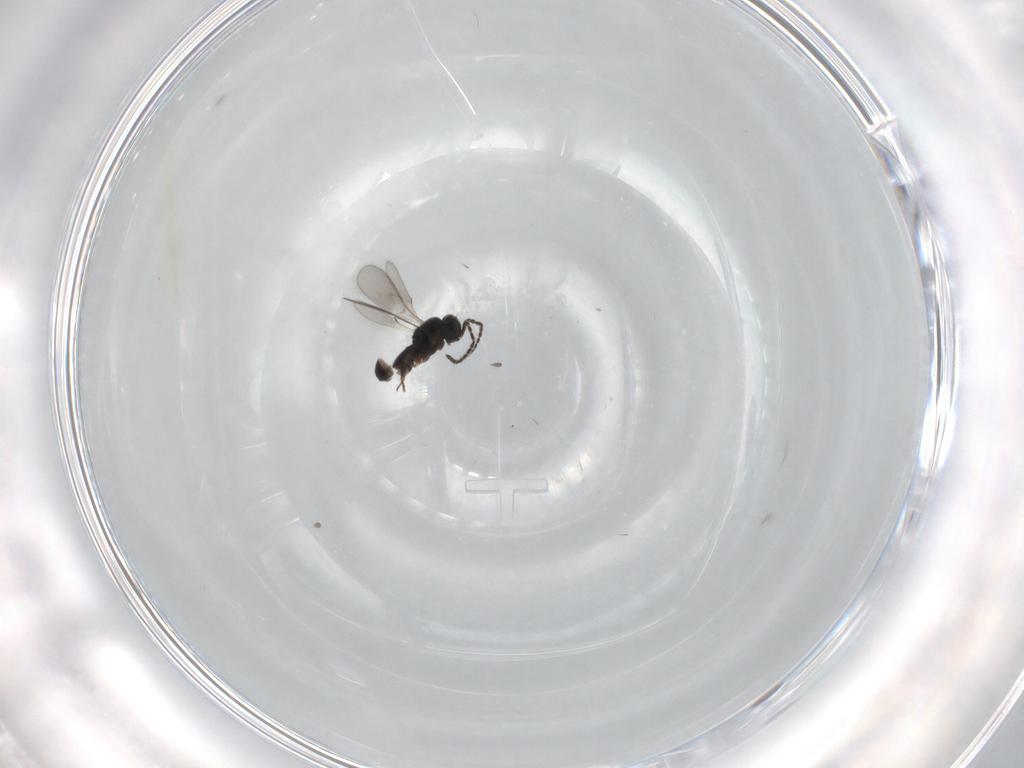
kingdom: Animalia
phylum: Arthropoda
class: Insecta
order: Hymenoptera
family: Scelionidae
